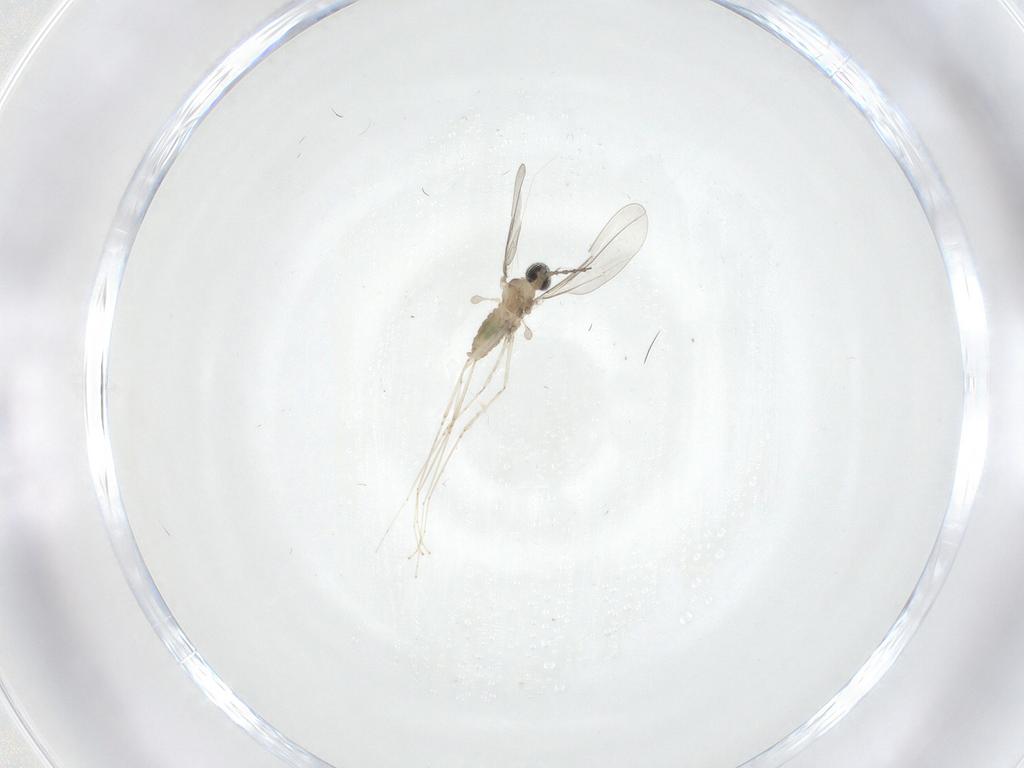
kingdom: Animalia
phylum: Arthropoda
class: Insecta
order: Diptera
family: Cecidomyiidae
